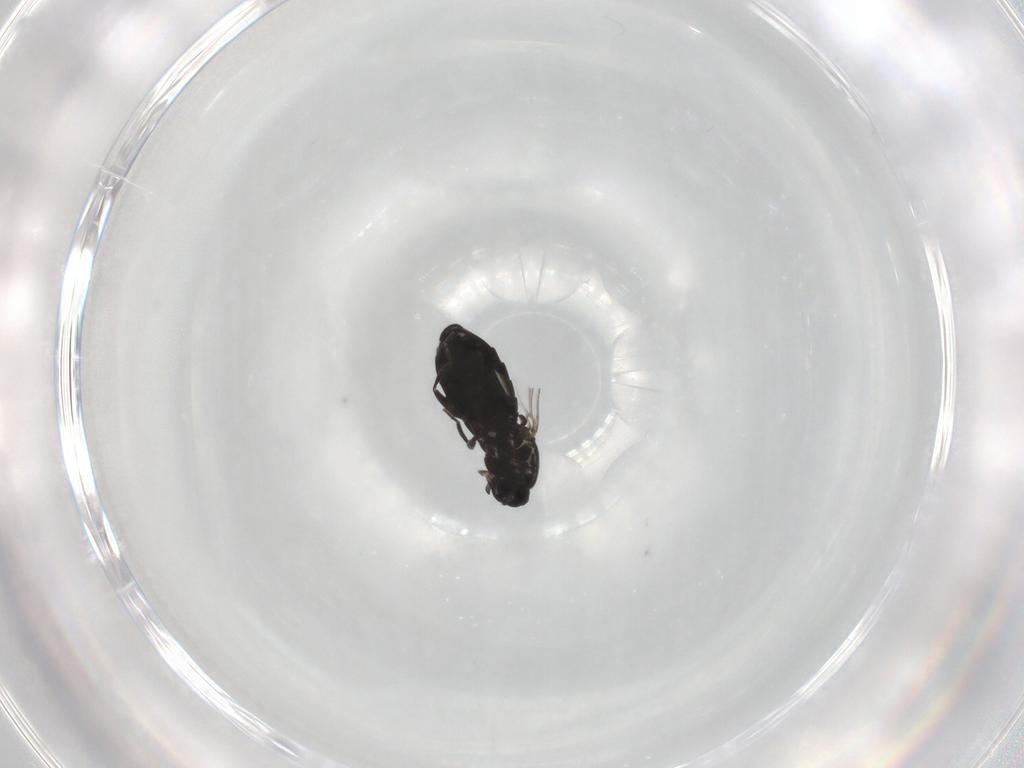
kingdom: Animalia
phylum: Arthropoda
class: Insecta
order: Diptera
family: Scatopsidae
